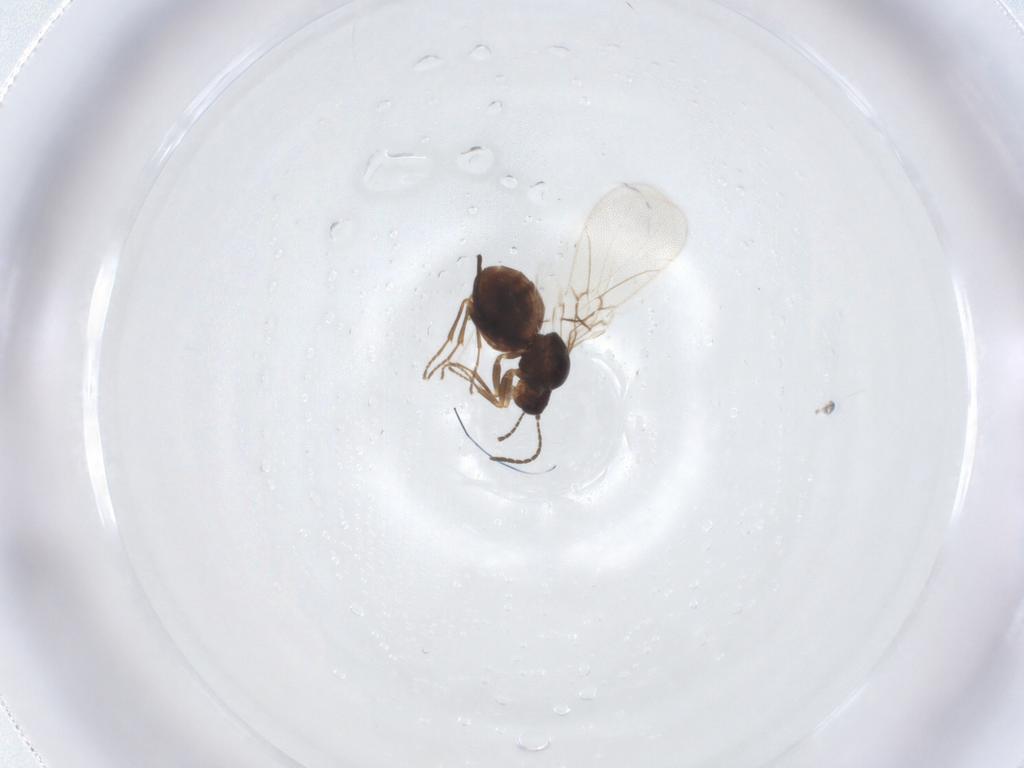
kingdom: Animalia
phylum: Arthropoda
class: Insecta
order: Hymenoptera
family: Cynipidae
